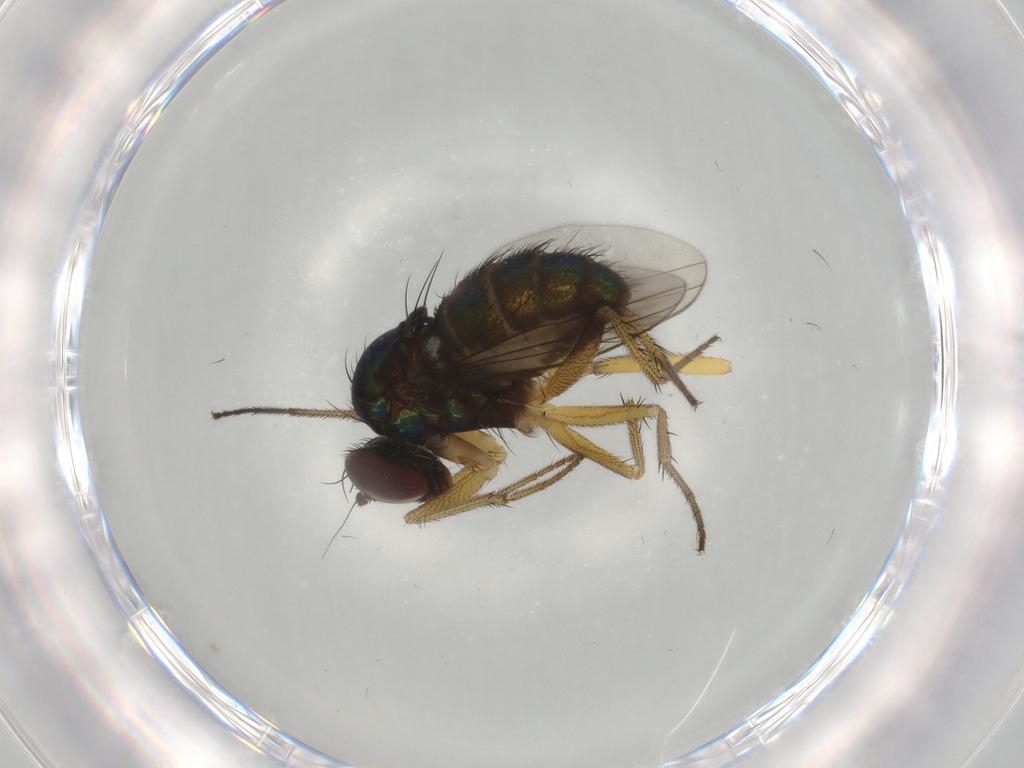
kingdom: Animalia
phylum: Arthropoda
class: Insecta
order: Diptera
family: Dolichopodidae
